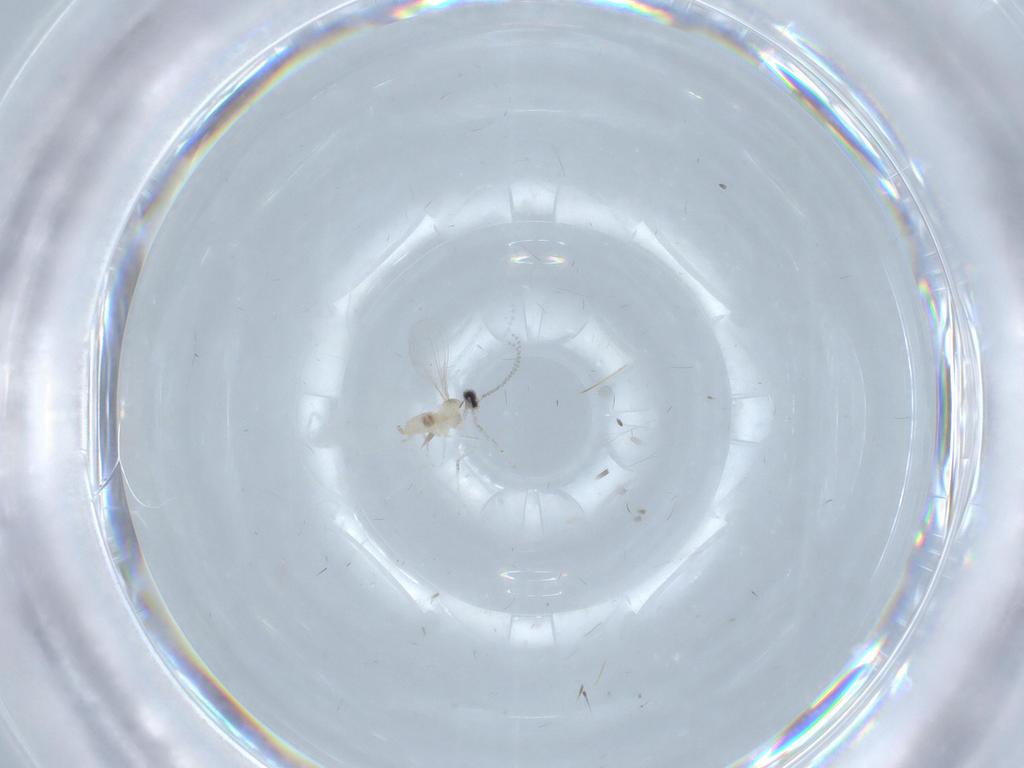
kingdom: Animalia
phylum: Arthropoda
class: Insecta
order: Diptera
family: Cecidomyiidae
